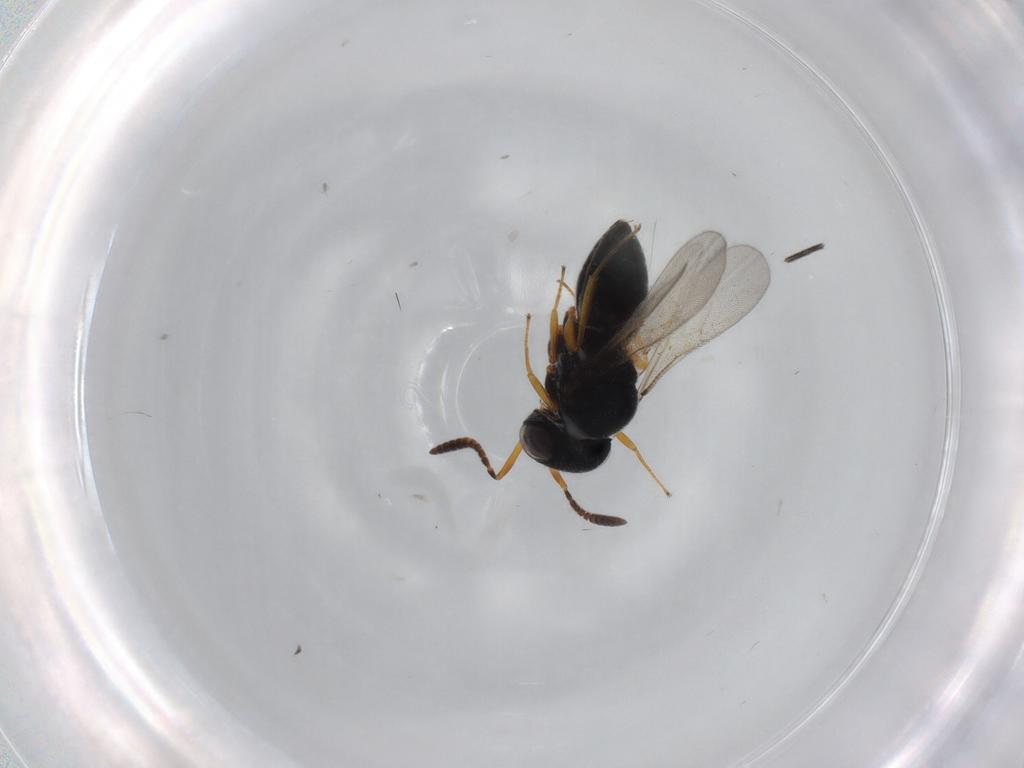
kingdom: Animalia
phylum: Arthropoda
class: Insecta
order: Hymenoptera
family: Scelionidae
